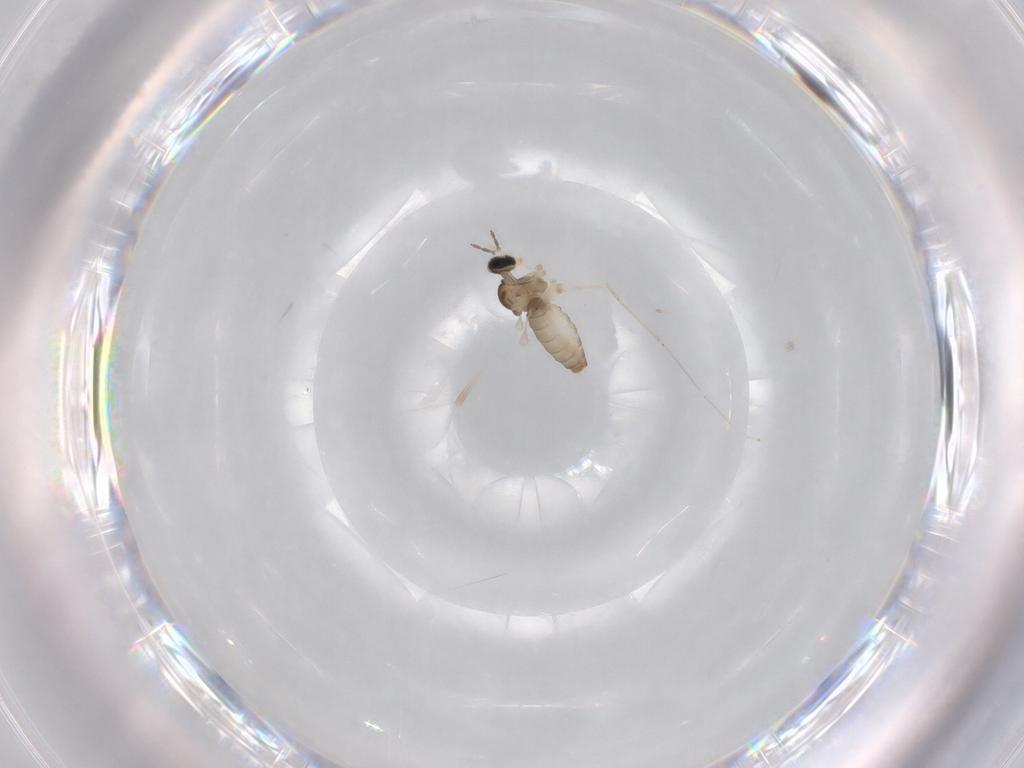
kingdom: Animalia
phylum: Arthropoda
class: Insecta
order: Diptera
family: Cecidomyiidae
